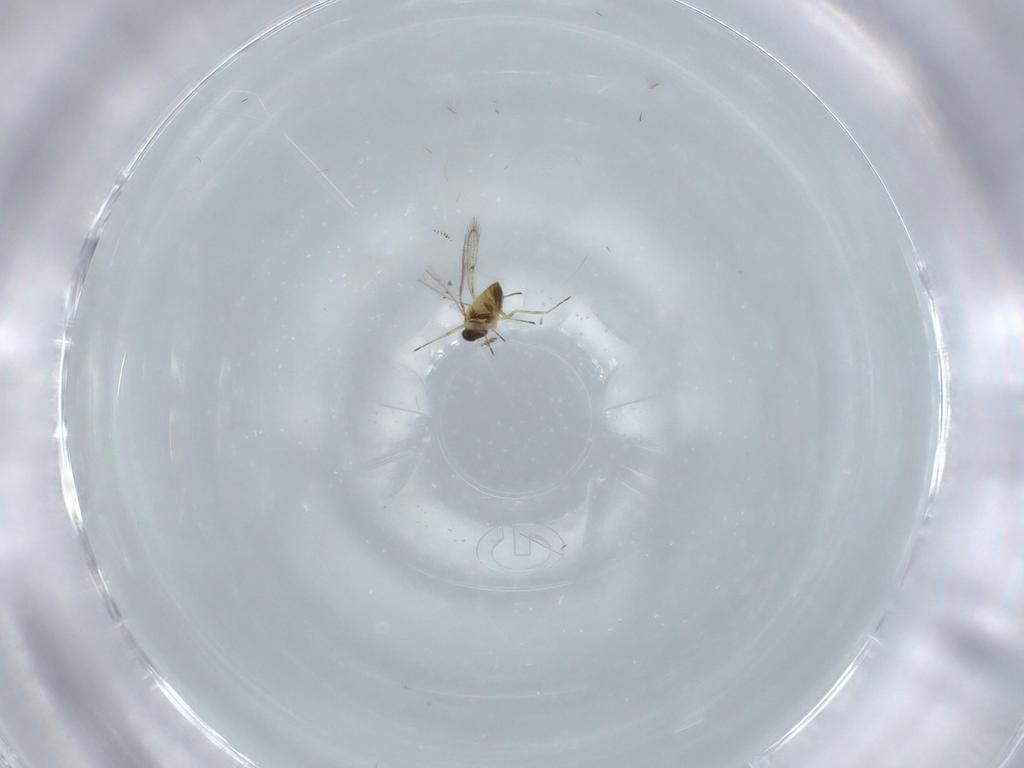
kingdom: Animalia
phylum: Arthropoda
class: Insecta
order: Hymenoptera
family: Trichogrammatidae
